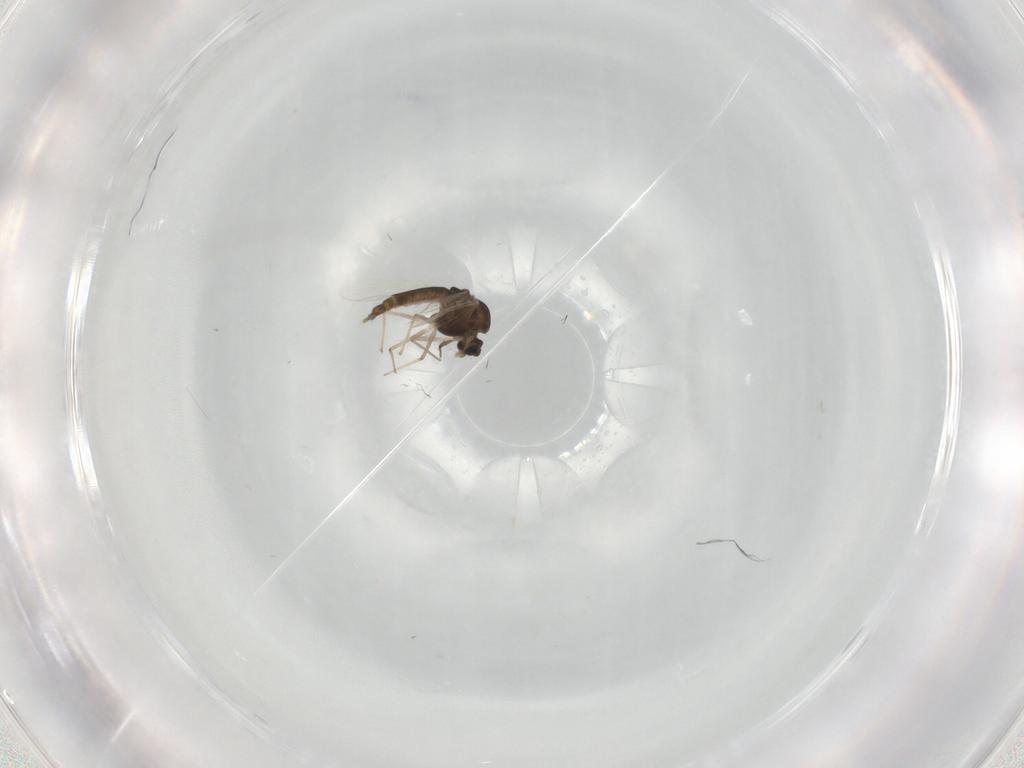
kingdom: Animalia
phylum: Arthropoda
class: Insecta
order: Diptera
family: Chironomidae
